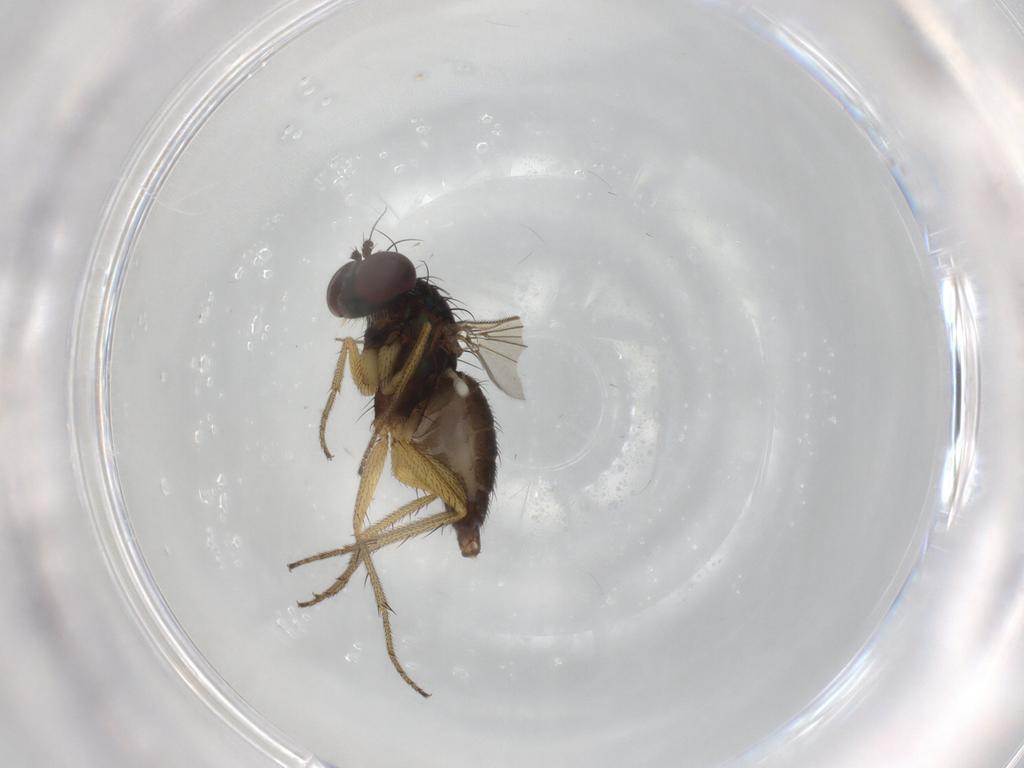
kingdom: Animalia
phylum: Arthropoda
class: Insecta
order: Diptera
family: Dolichopodidae
